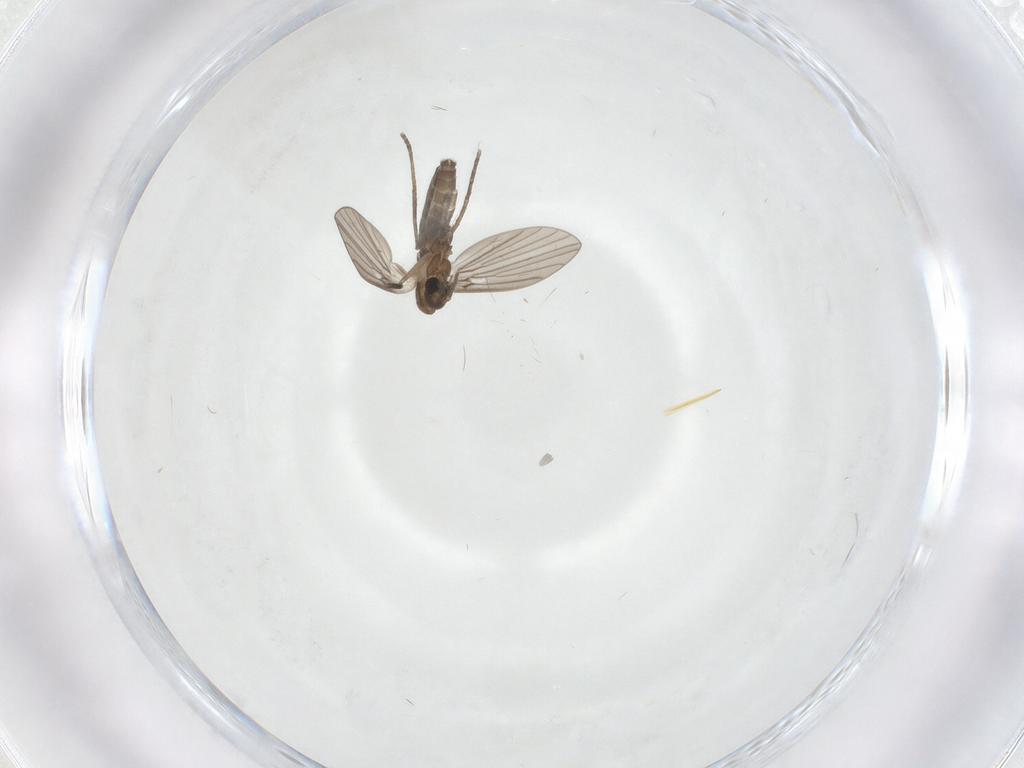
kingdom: Animalia
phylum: Arthropoda
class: Insecta
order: Diptera
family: Psychodidae
